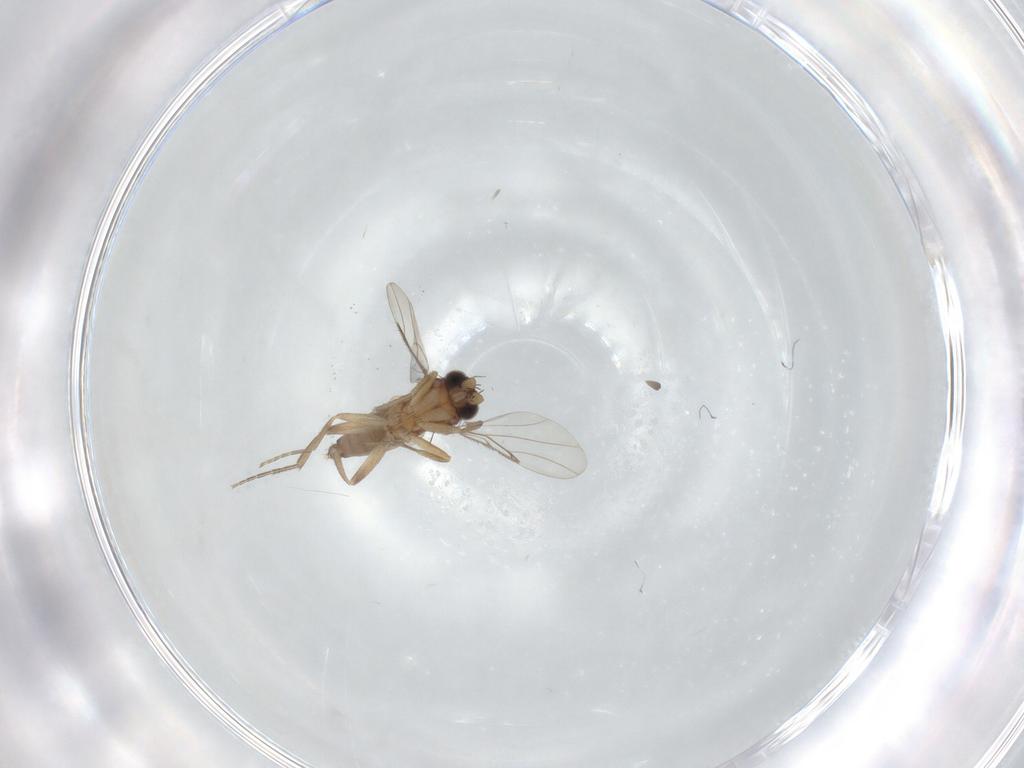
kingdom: Animalia
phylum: Arthropoda
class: Insecta
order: Diptera
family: Phoridae
